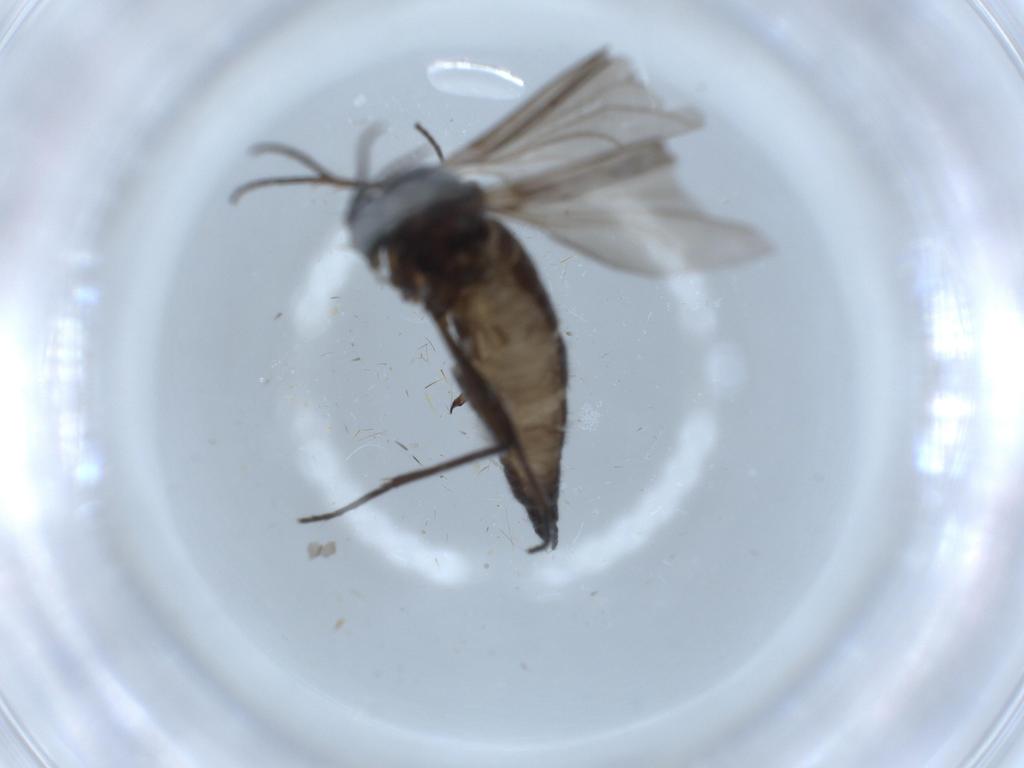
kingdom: Animalia
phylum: Arthropoda
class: Insecta
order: Diptera
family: Sciaridae
